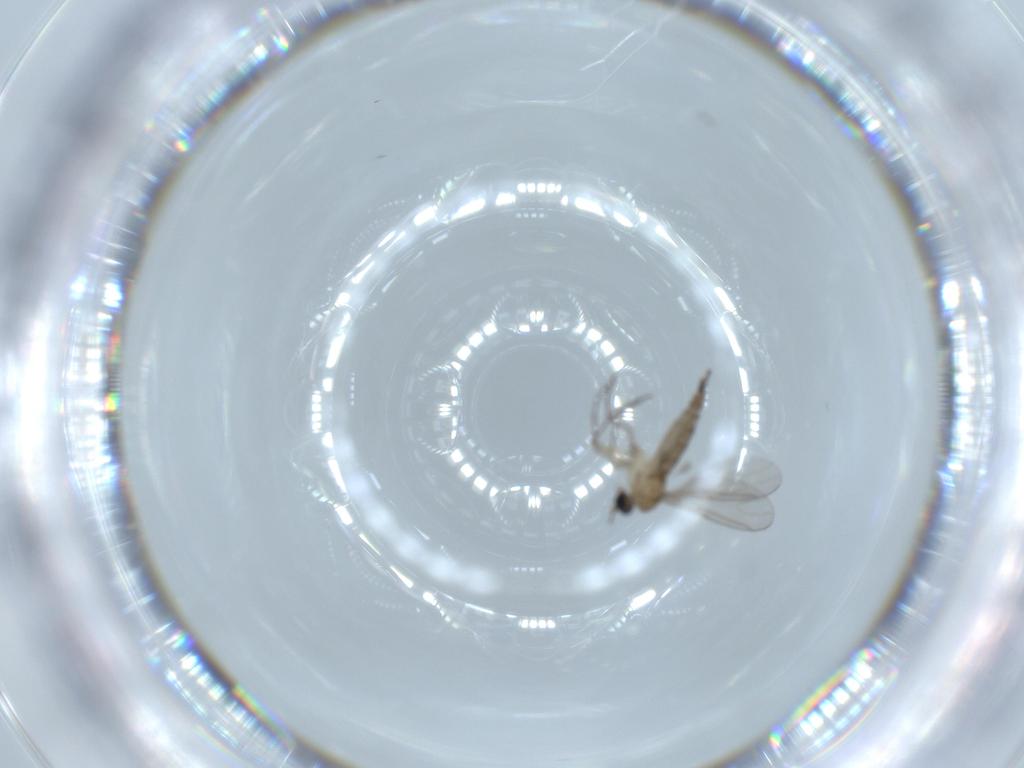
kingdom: Animalia
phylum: Arthropoda
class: Insecta
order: Diptera
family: Sciaridae
